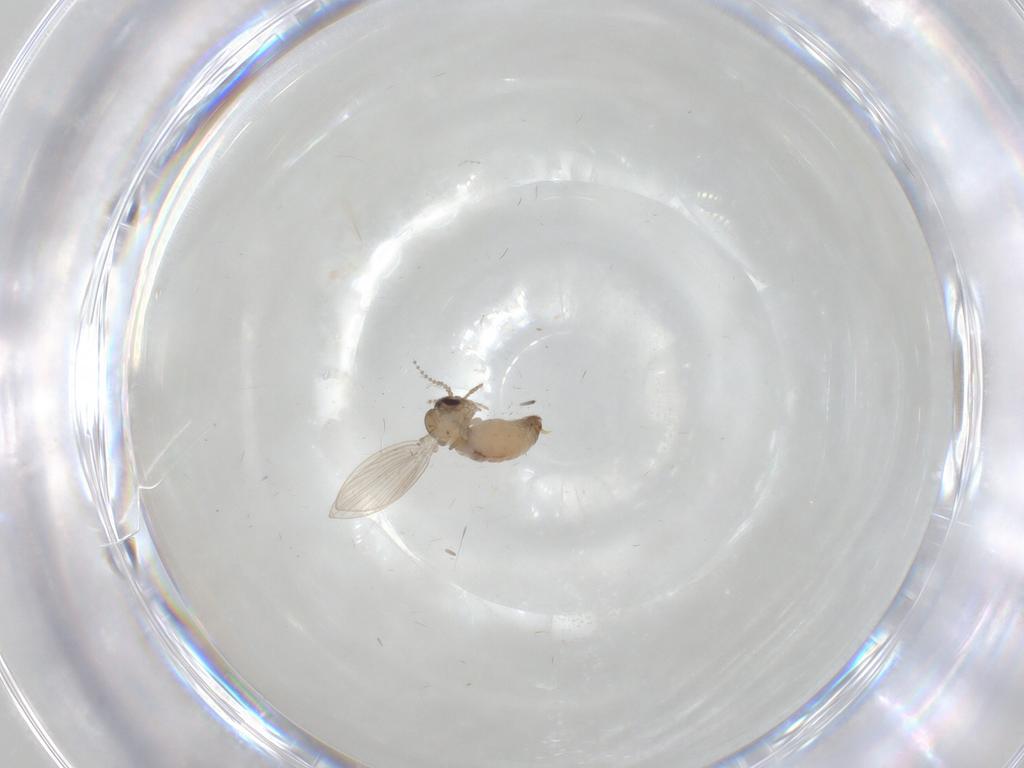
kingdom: Animalia
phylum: Arthropoda
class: Insecta
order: Diptera
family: Psychodidae
